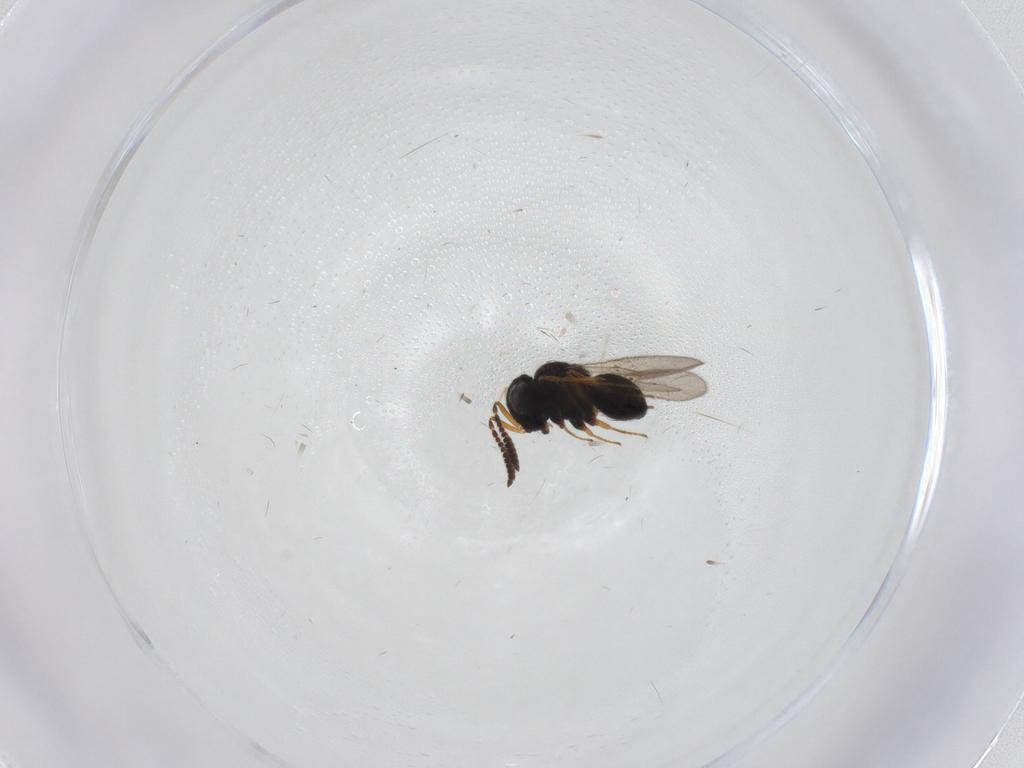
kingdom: Animalia
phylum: Arthropoda
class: Insecta
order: Hymenoptera
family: Scelionidae
